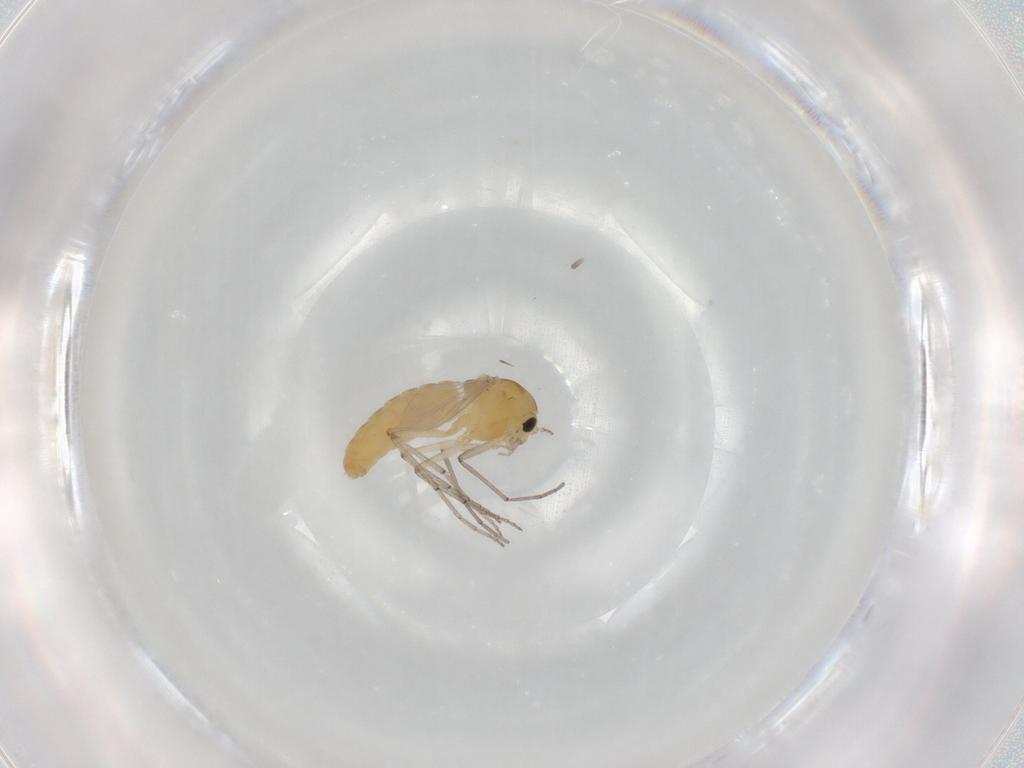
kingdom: Animalia
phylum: Arthropoda
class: Insecta
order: Diptera
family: Chironomidae
